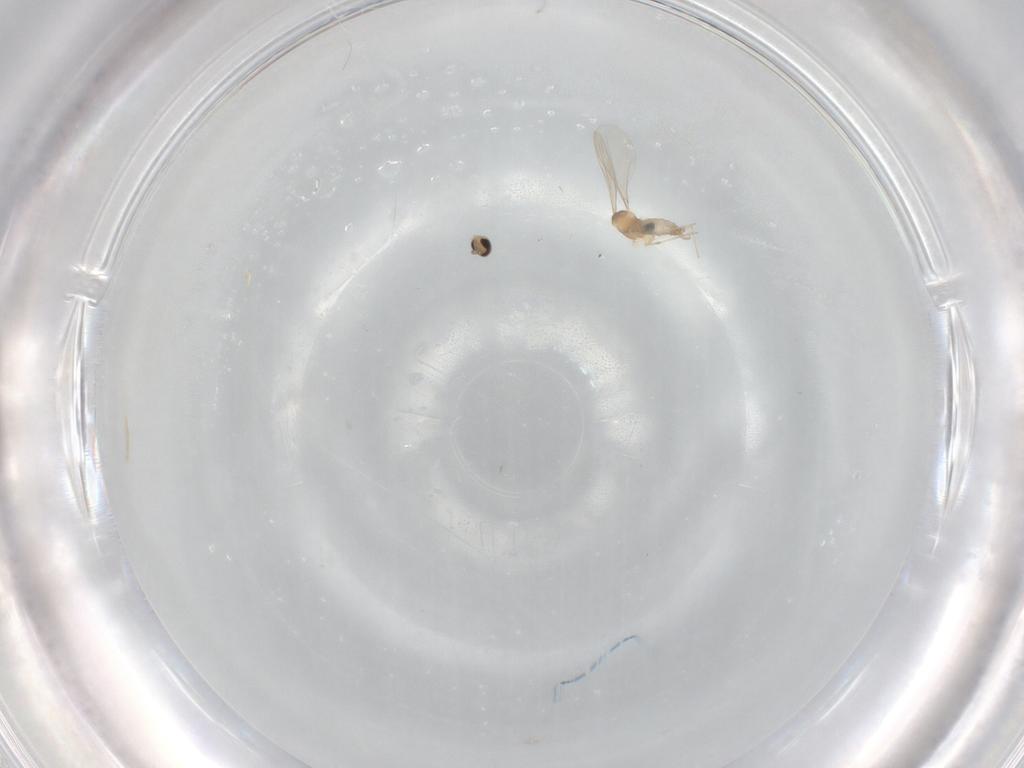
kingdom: Animalia
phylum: Arthropoda
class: Insecta
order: Diptera
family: Cecidomyiidae
